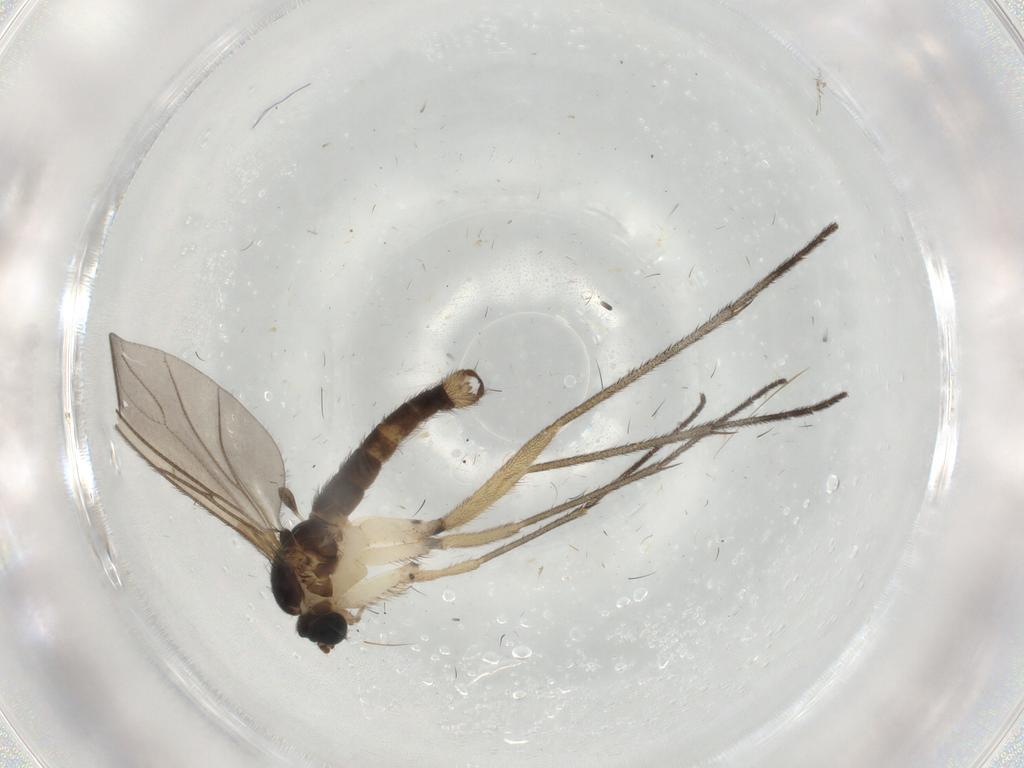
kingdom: Animalia
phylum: Arthropoda
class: Insecta
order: Diptera
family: Sciaridae
